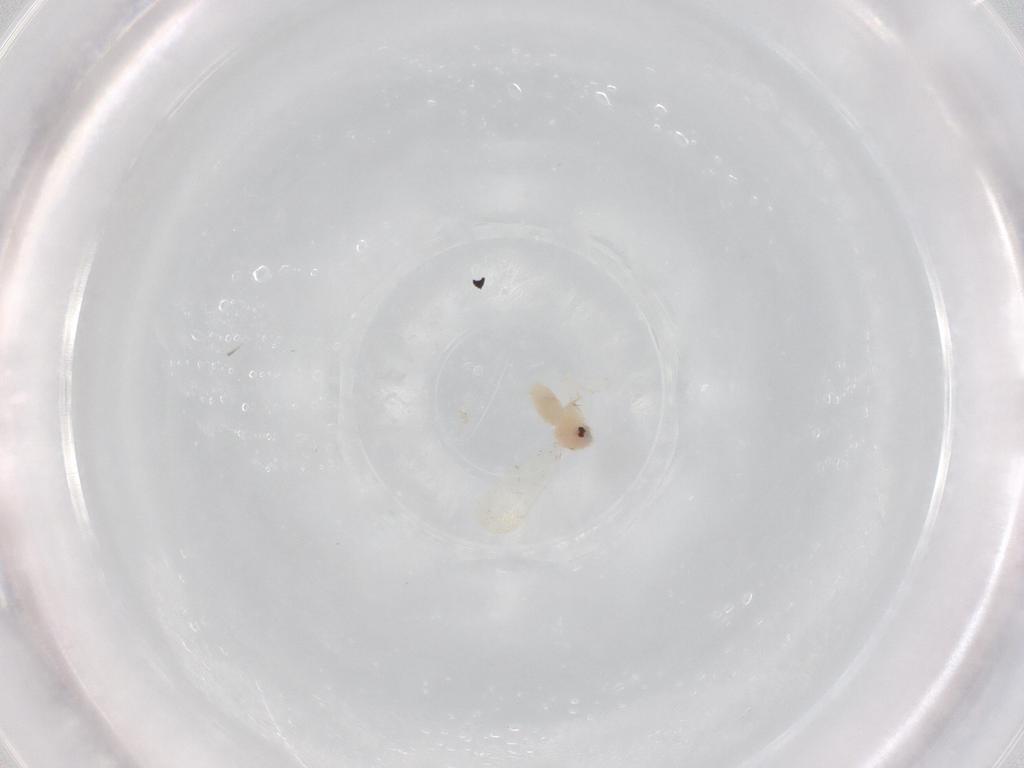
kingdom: Animalia
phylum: Arthropoda
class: Insecta
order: Hemiptera
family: Aleyrodidae
